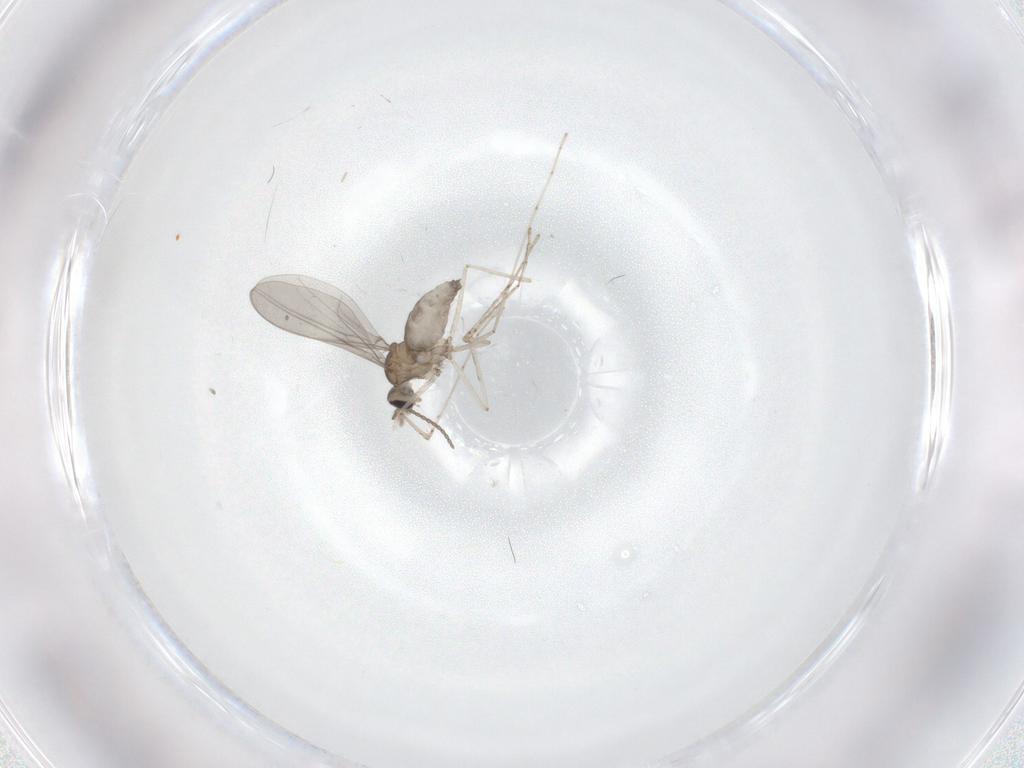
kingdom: Animalia
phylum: Arthropoda
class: Insecta
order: Diptera
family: Cecidomyiidae
